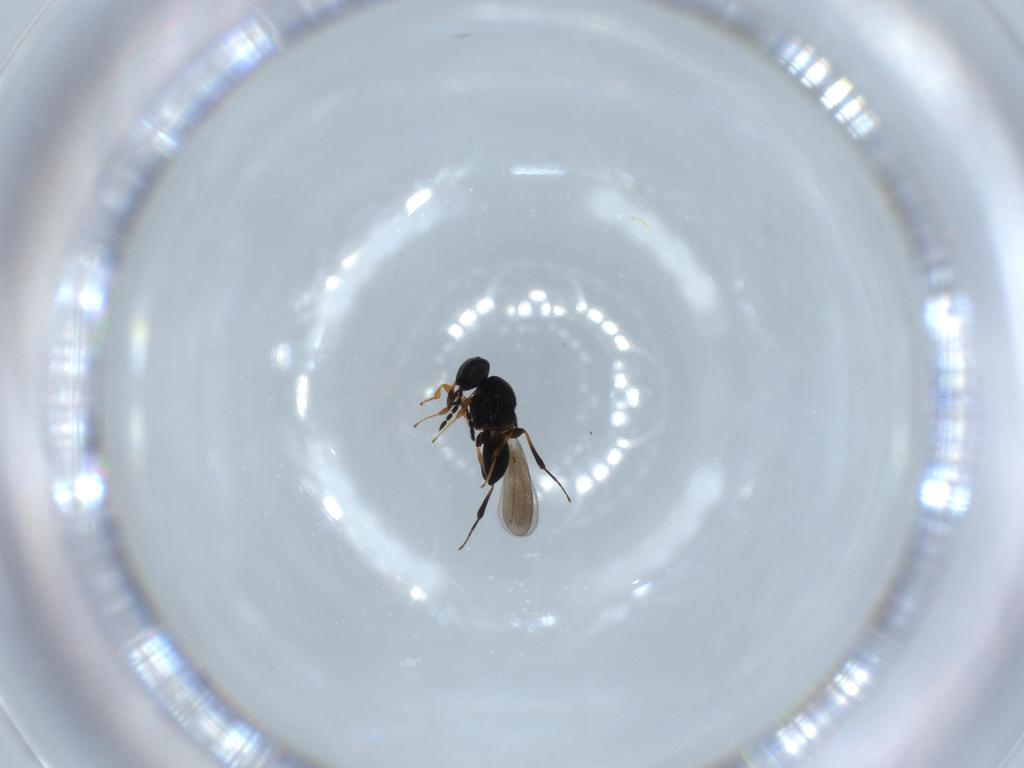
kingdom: Animalia
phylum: Arthropoda
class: Insecta
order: Hymenoptera
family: Platygastridae
